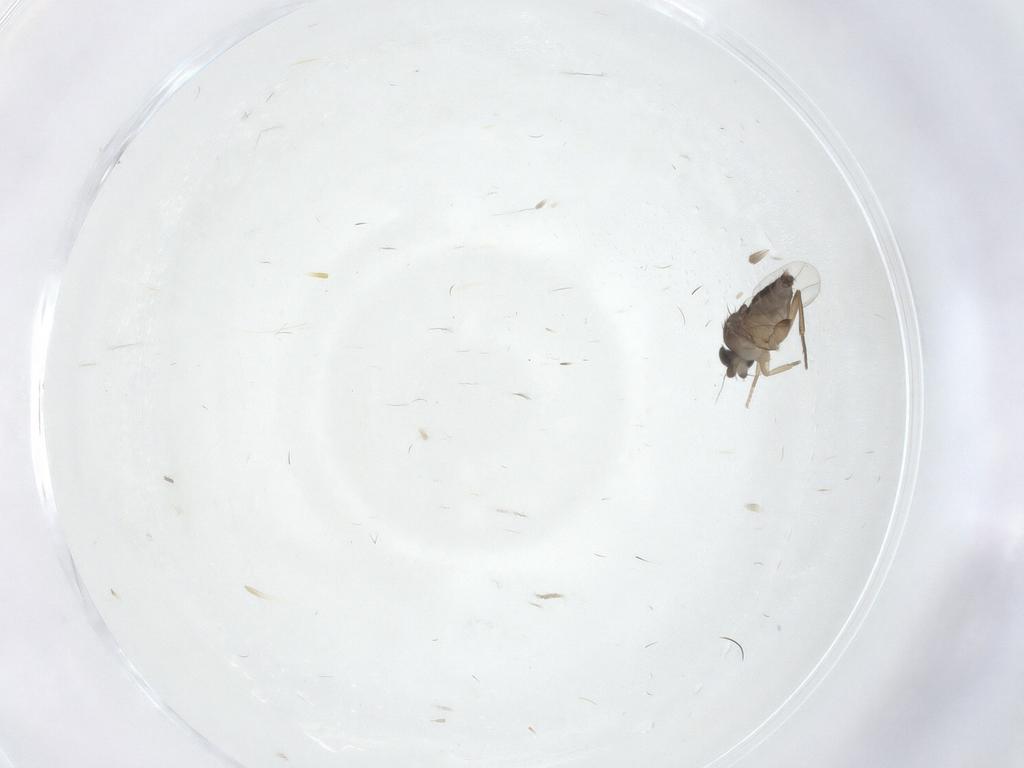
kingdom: Animalia
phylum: Arthropoda
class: Insecta
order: Diptera
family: Phoridae
